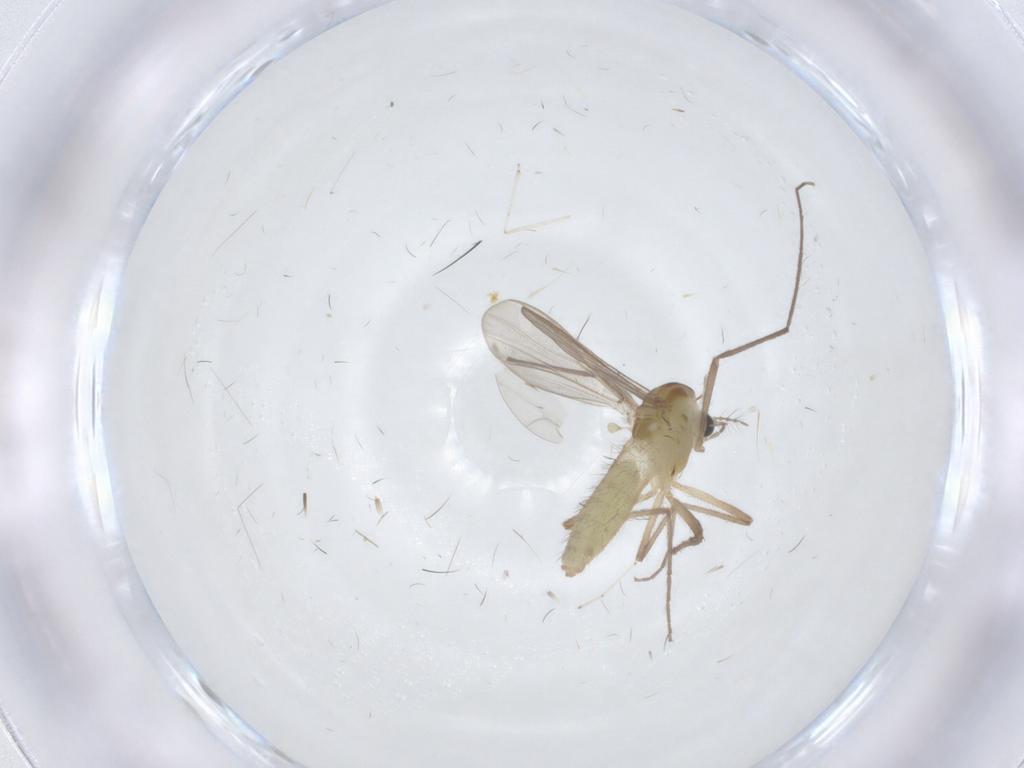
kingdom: Animalia
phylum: Arthropoda
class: Insecta
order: Diptera
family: Chironomidae
